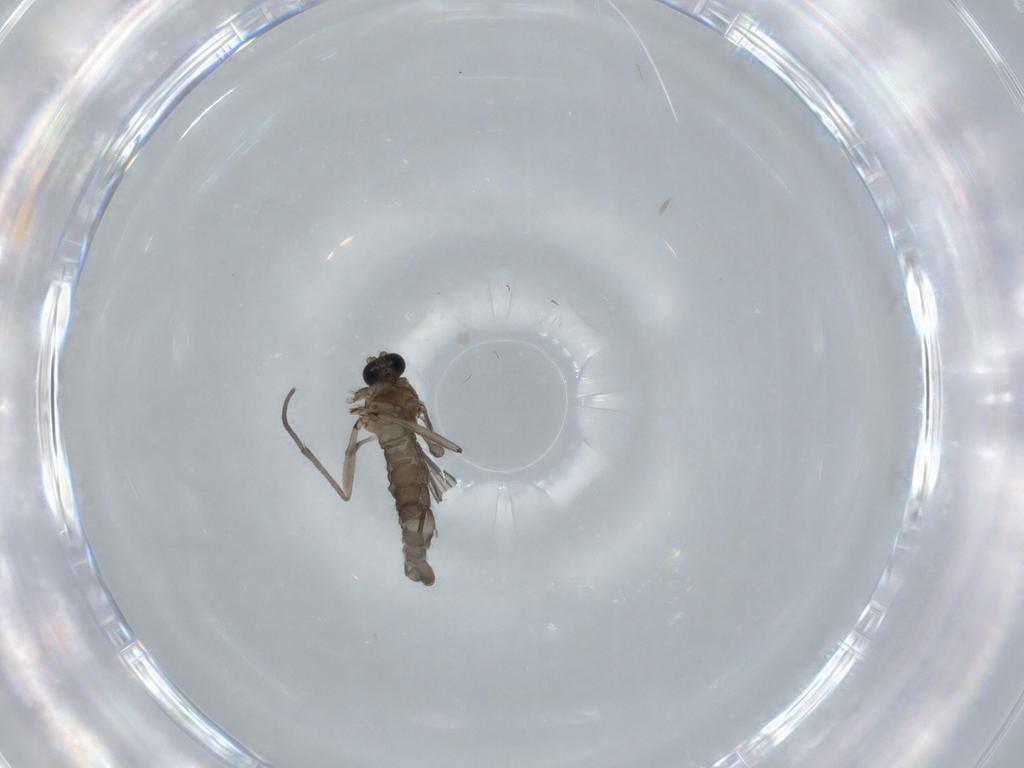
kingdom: Animalia
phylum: Arthropoda
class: Insecta
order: Diptera
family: Sciaridae
